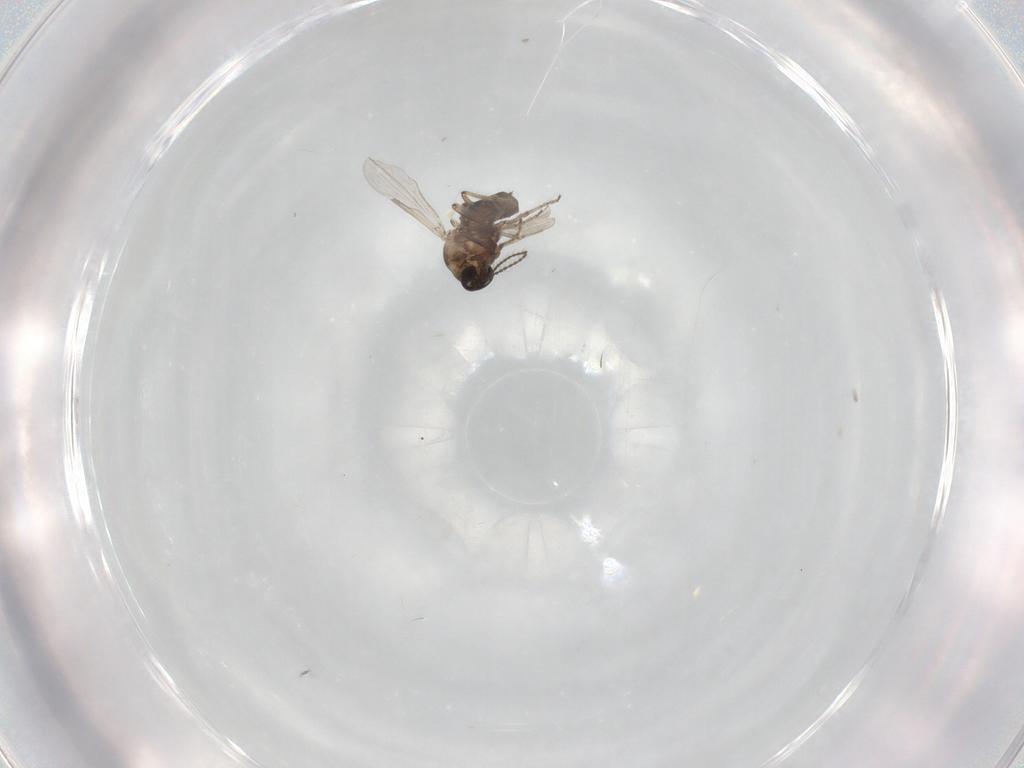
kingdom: Animalia
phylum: Arthropoda
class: Insecta
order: Diptera
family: Ceratopogonidae
